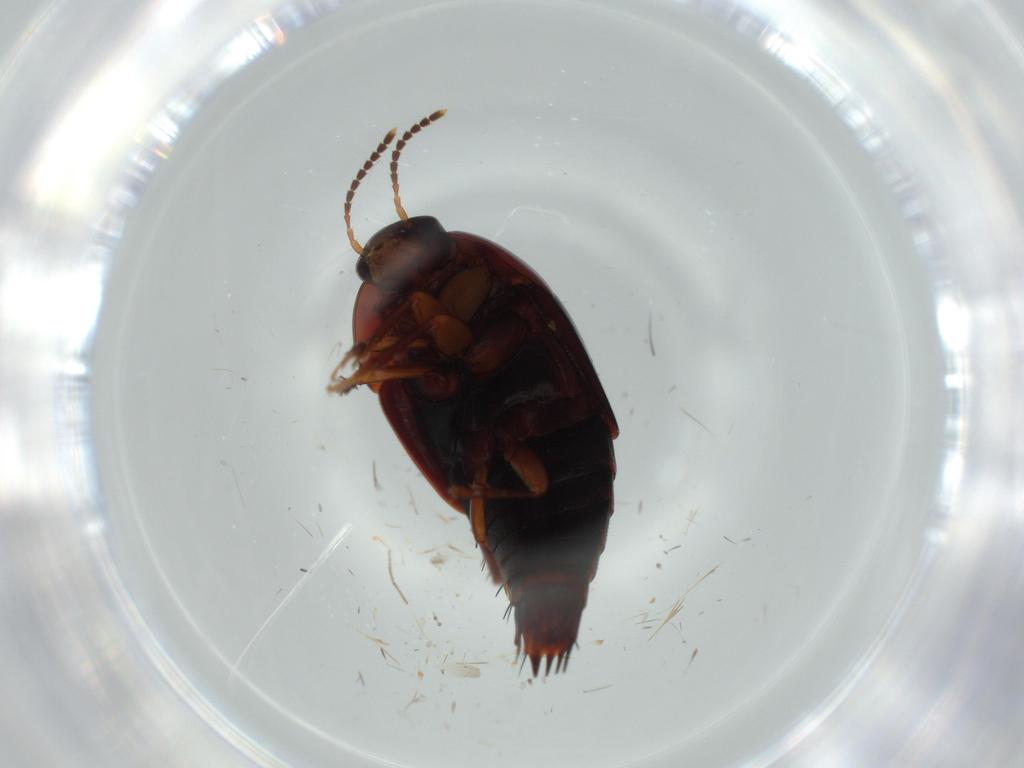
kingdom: Animalia
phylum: Arthropoda
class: Insecta
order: Coleoptera
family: Staphylinidae
